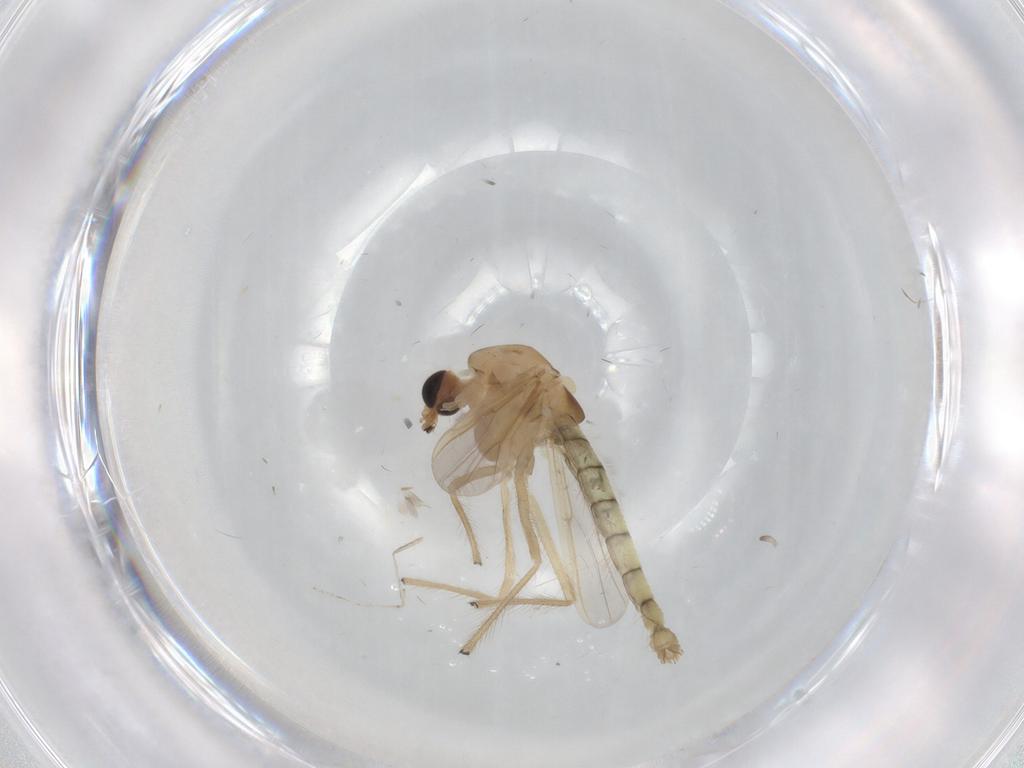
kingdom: Animalia
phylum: Arthropoda
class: Insecta
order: Diptera
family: Chironomidae
